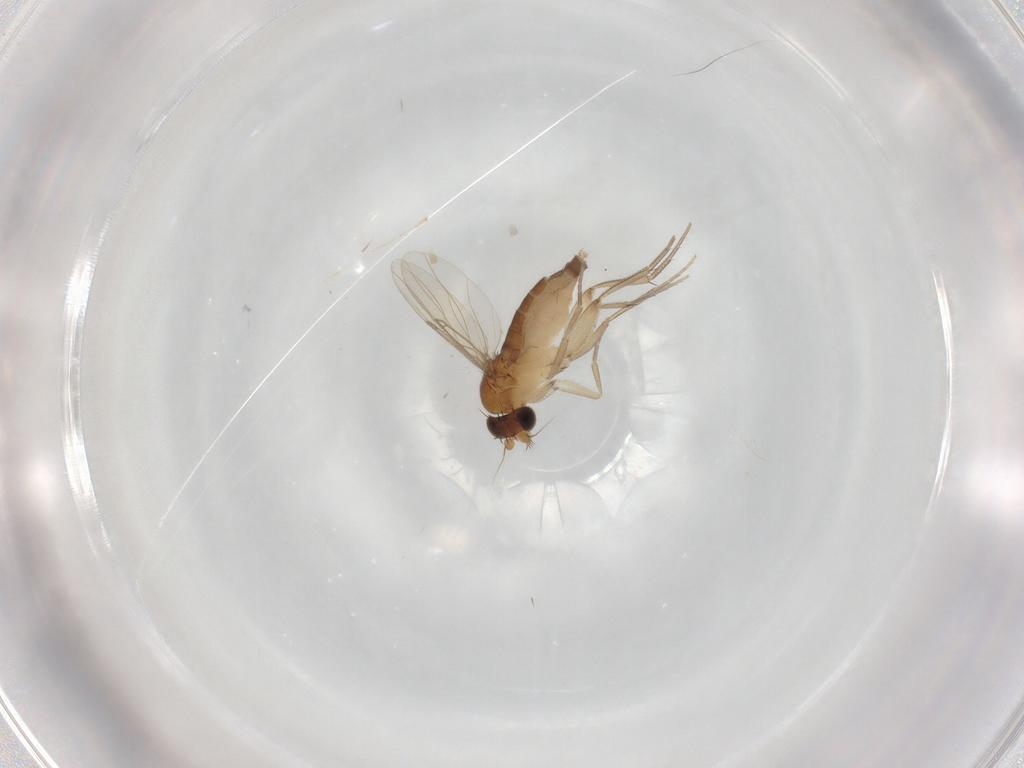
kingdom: Animalia
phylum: Arthropoda
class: Insecta
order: Diptera
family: Phoridae
